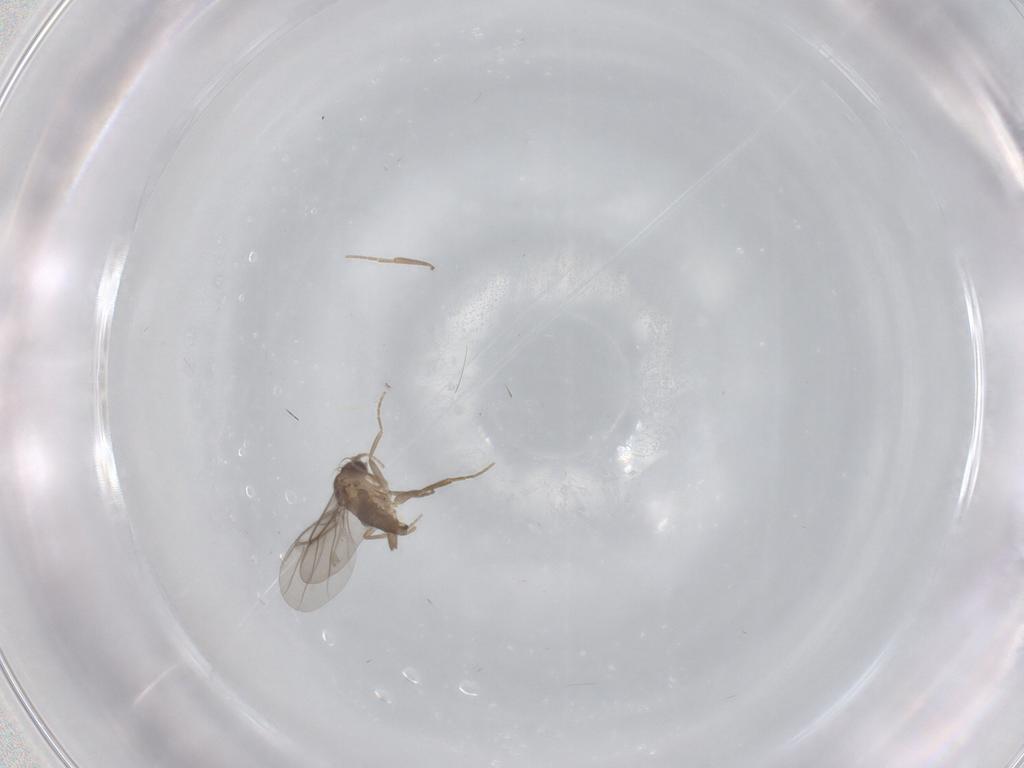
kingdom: Animalia
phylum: Arthropoda
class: Insecta
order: Diptera
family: Limoniidae
